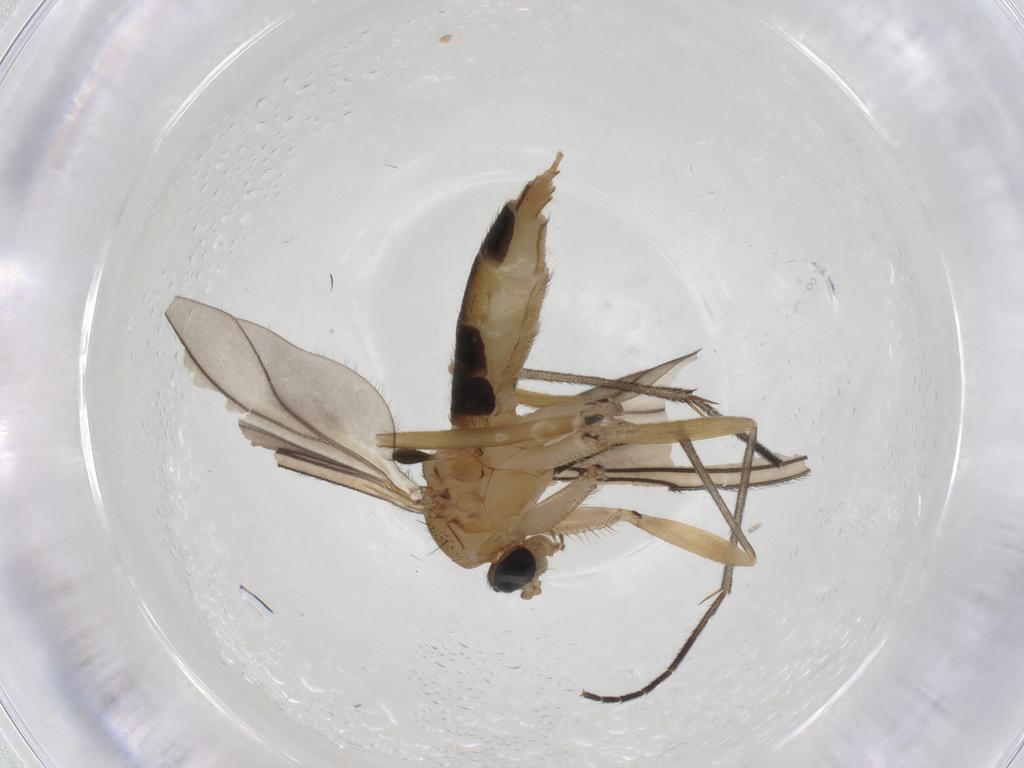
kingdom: Animalia
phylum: Arthropoda
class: Insecta
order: Diptera
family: Sciaridae
